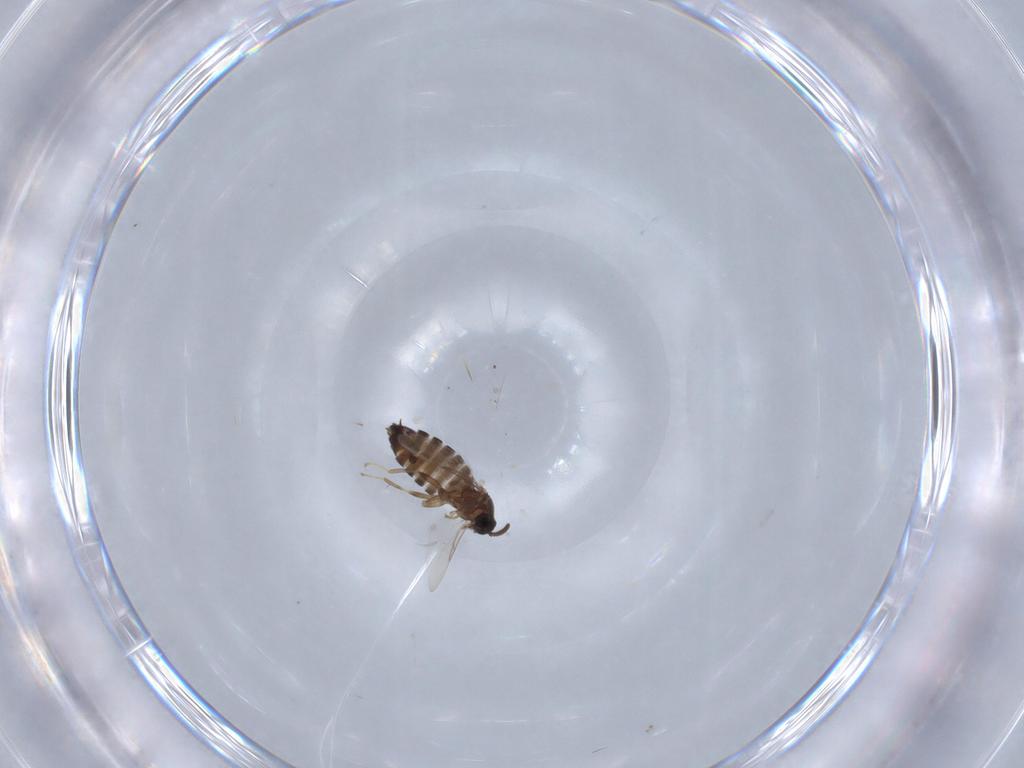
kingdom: Animalia
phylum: Arthropoda
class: Insecta
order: Diptera
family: Scatopsidae
